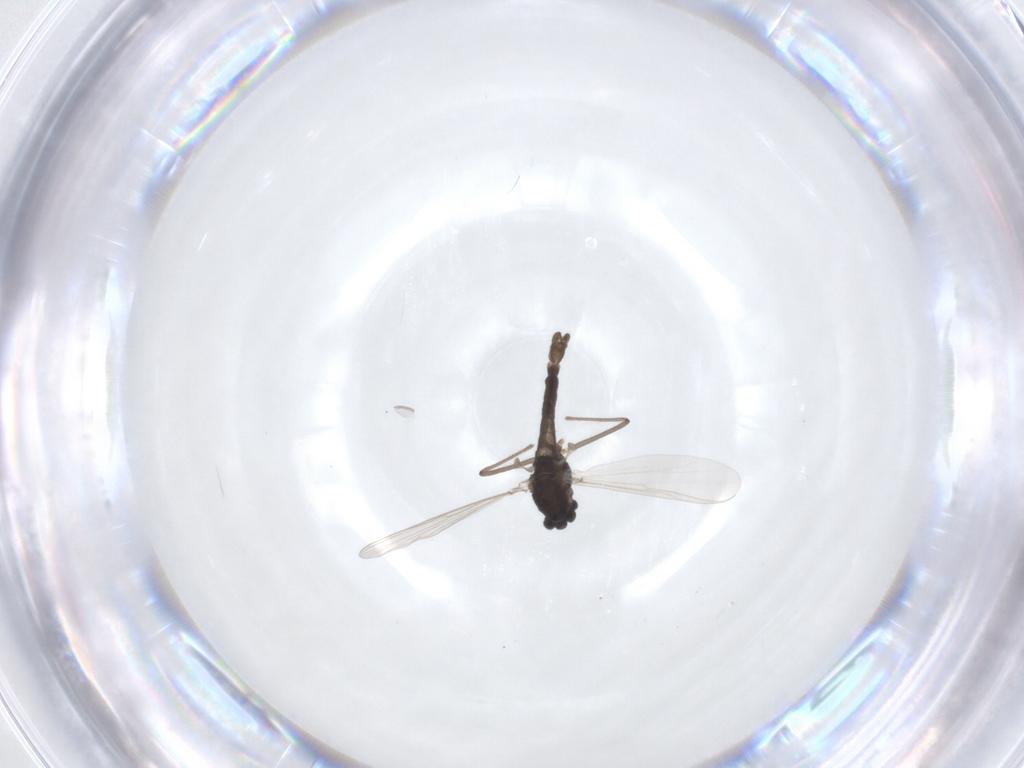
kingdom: Animalia
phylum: Arthropoda
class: Insecta
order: Diptera
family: Chironomidae
